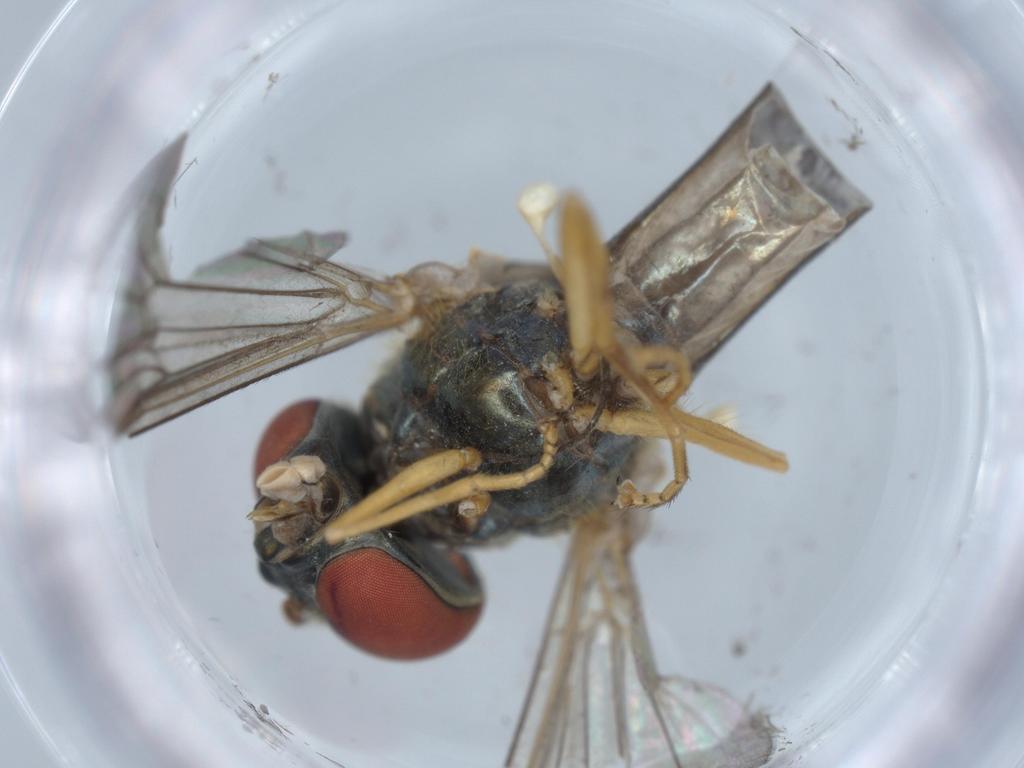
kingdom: Animalia
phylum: Arthropoda
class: Insecta
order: Diptera
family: Syrphidae
